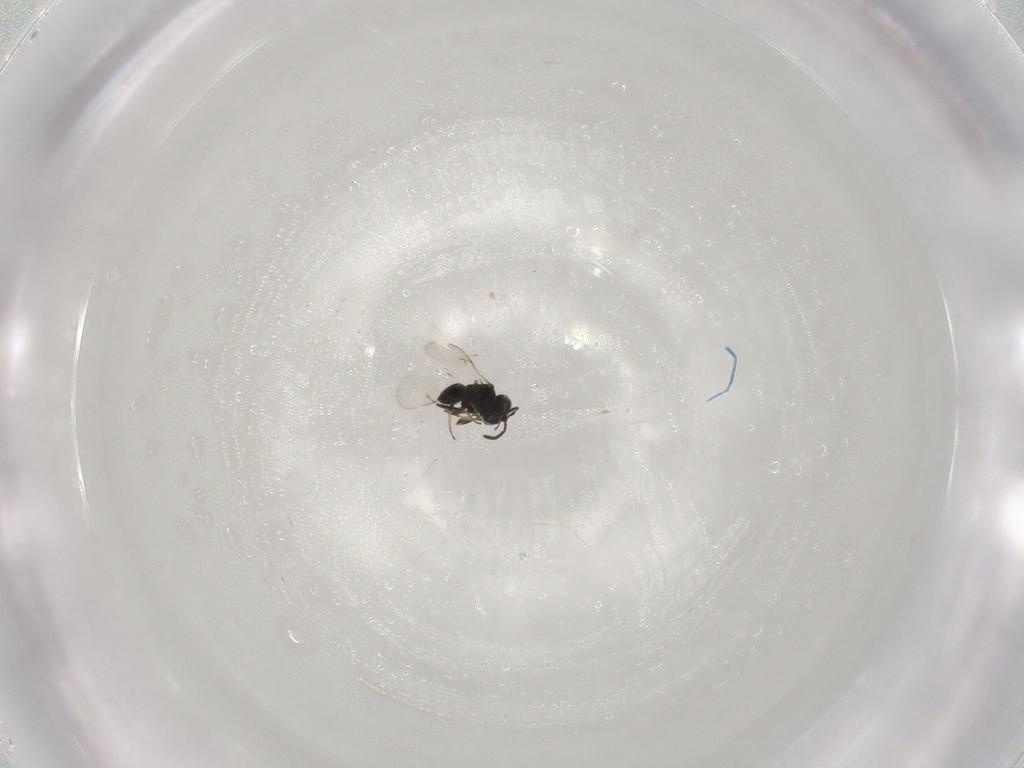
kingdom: Animalia
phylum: Arthropoda
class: Insecta
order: Hymenoptera
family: Scelionidae
